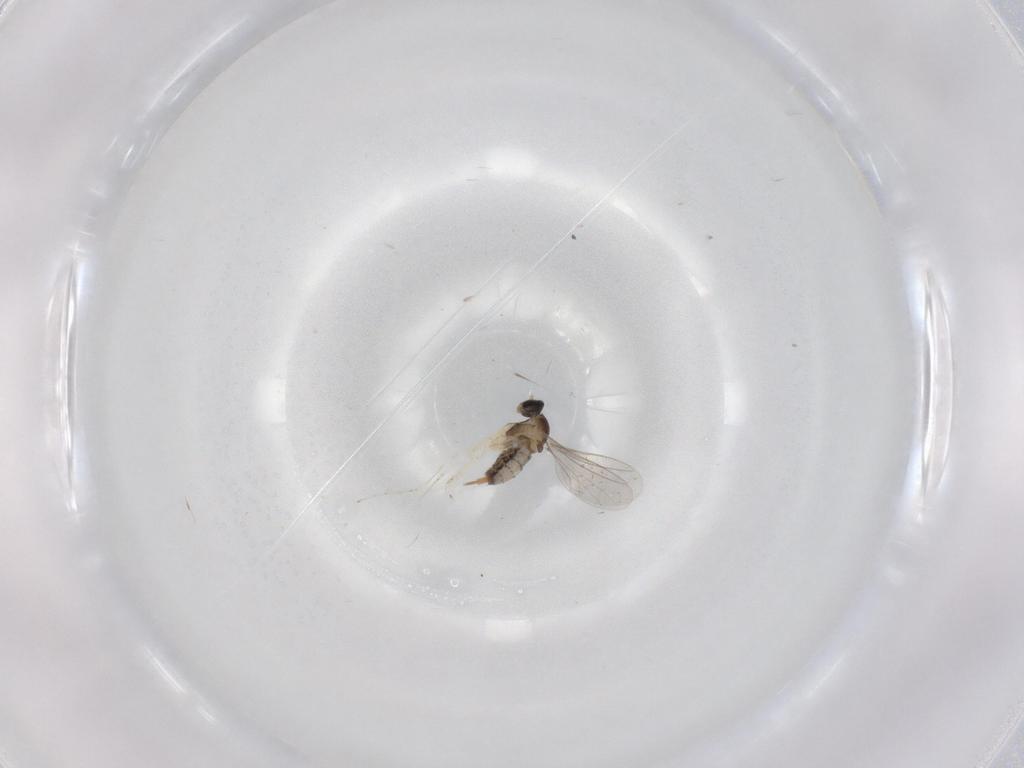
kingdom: Animalia
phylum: Arthropoda
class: Insecta
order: Diptera
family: Cecidomyiidae
